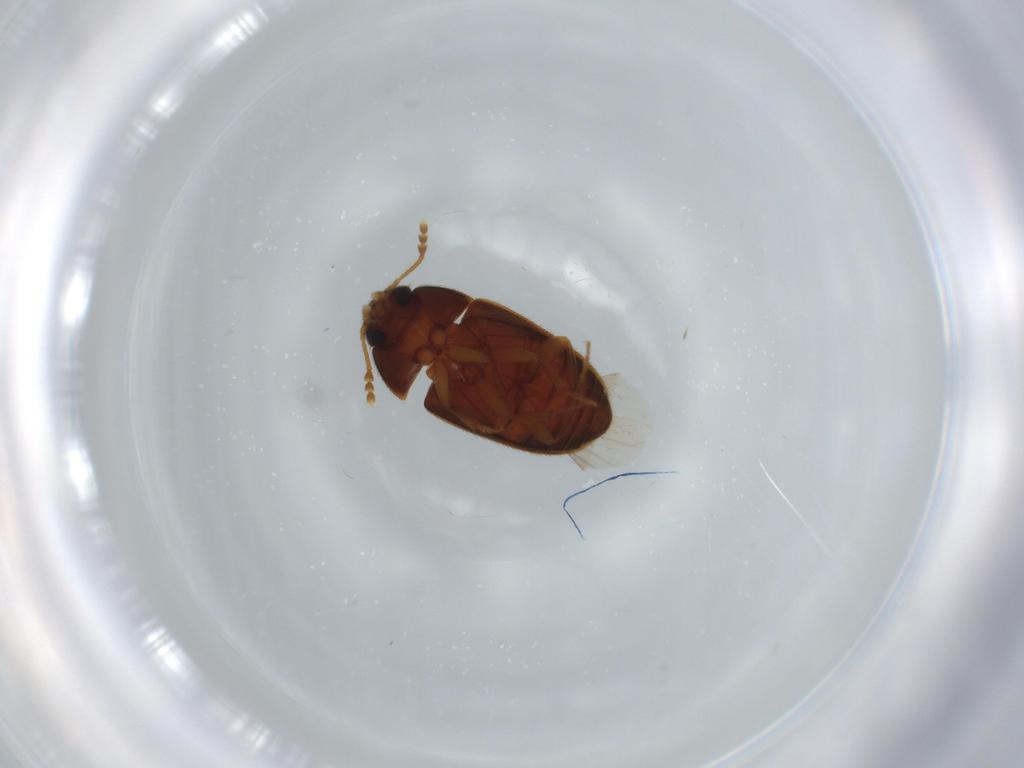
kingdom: Animalia
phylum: Arthropoda
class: Insecta
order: Coleoptera
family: Mycetophagidae
